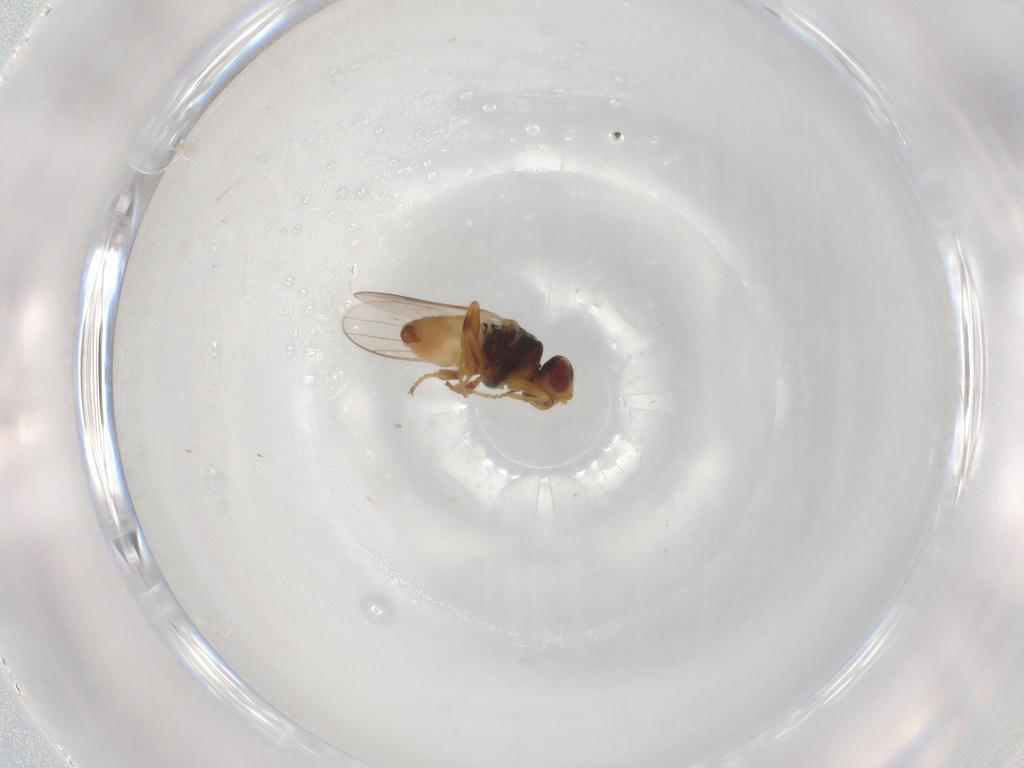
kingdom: Animalia
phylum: Arthropoda
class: Insecta
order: Diptera
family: Chloropidae
